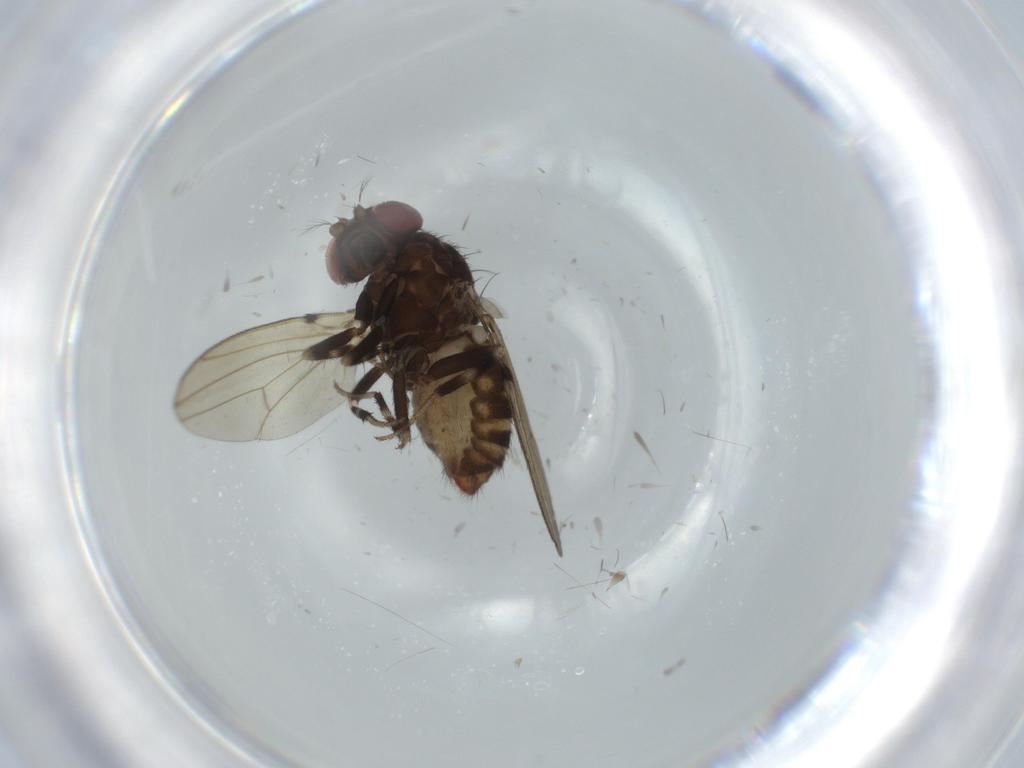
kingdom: Animalia
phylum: Arthropoda
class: Insecta
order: Diptera
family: Drosophilidae
